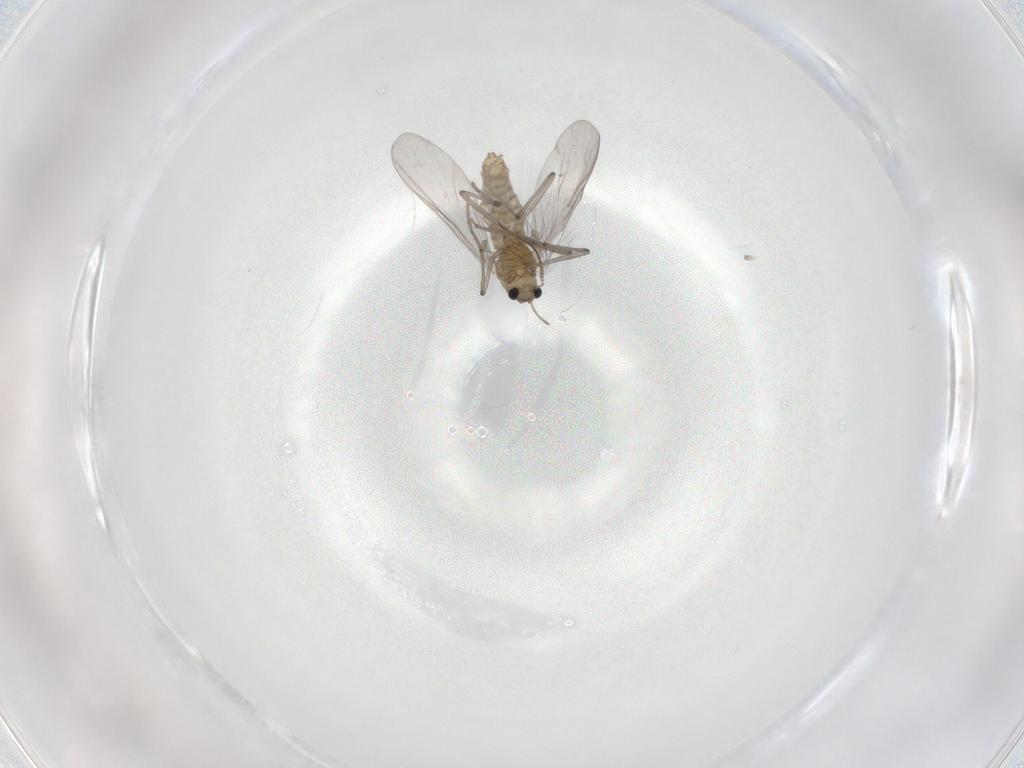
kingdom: Animalia
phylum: Arthropoda
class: Insecta
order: Diptera
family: Chironomidae
